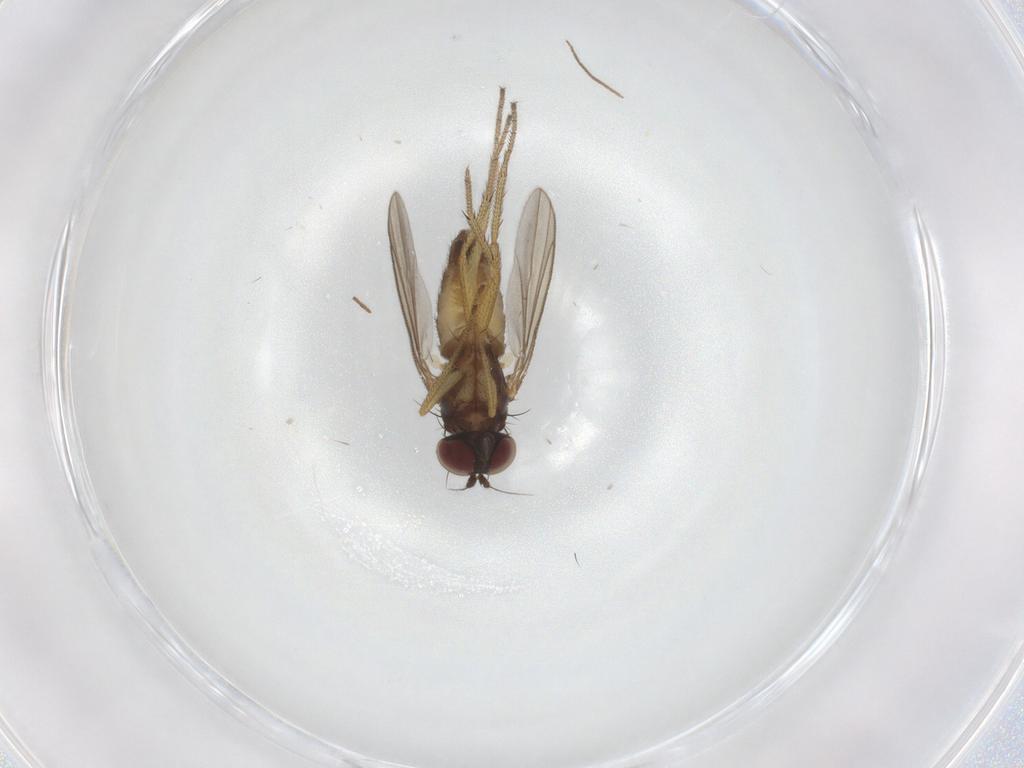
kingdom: Animalia
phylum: Arthropoda
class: Insecta
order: Diptera
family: Dolichopodidae
